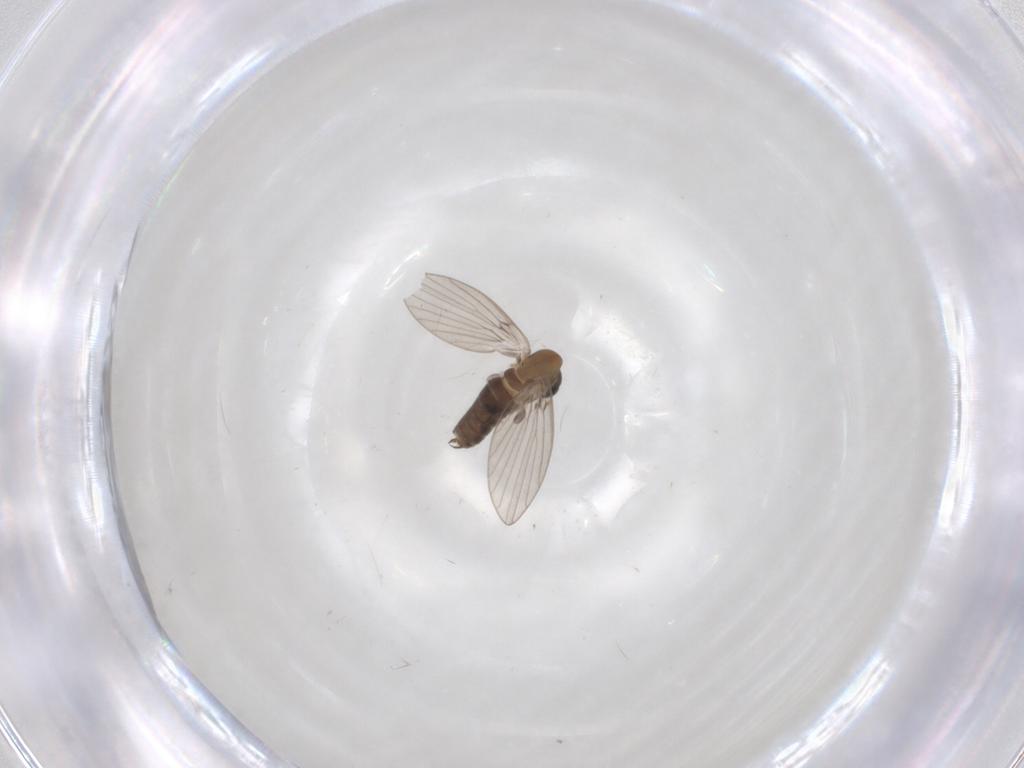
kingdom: Animalia
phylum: Arthropoda
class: Insecta
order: Diptera
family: Psychodidae
